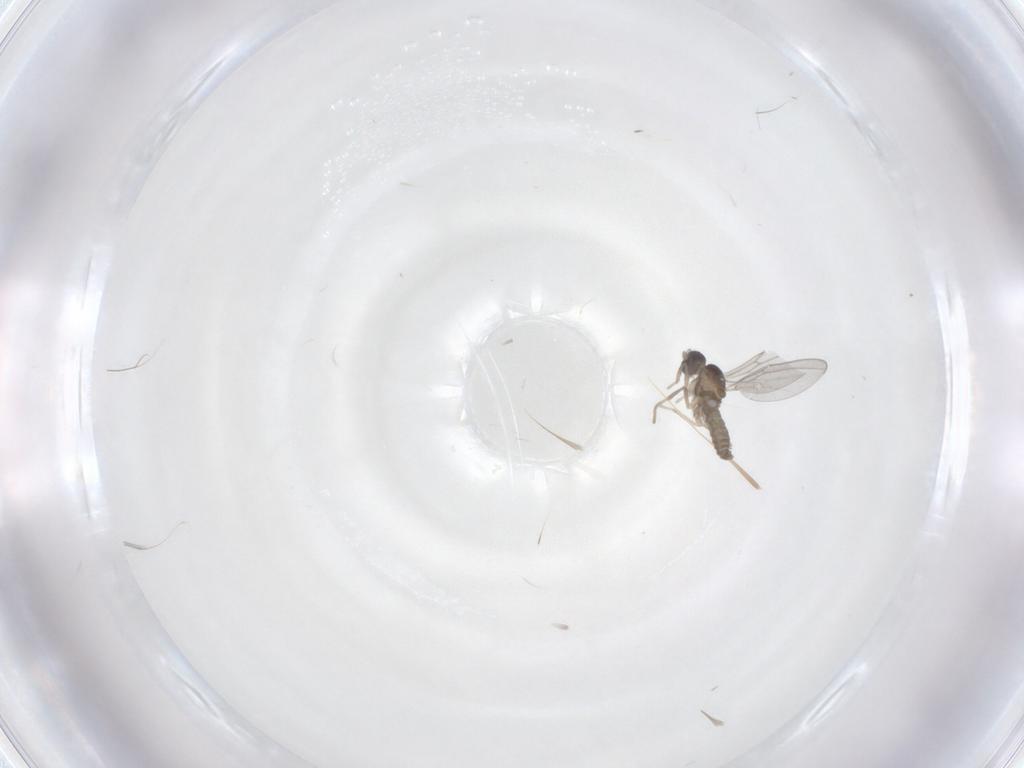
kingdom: Animalia
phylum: Arthropoda
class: Insecta
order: Diptera
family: Cecidomyiidae
